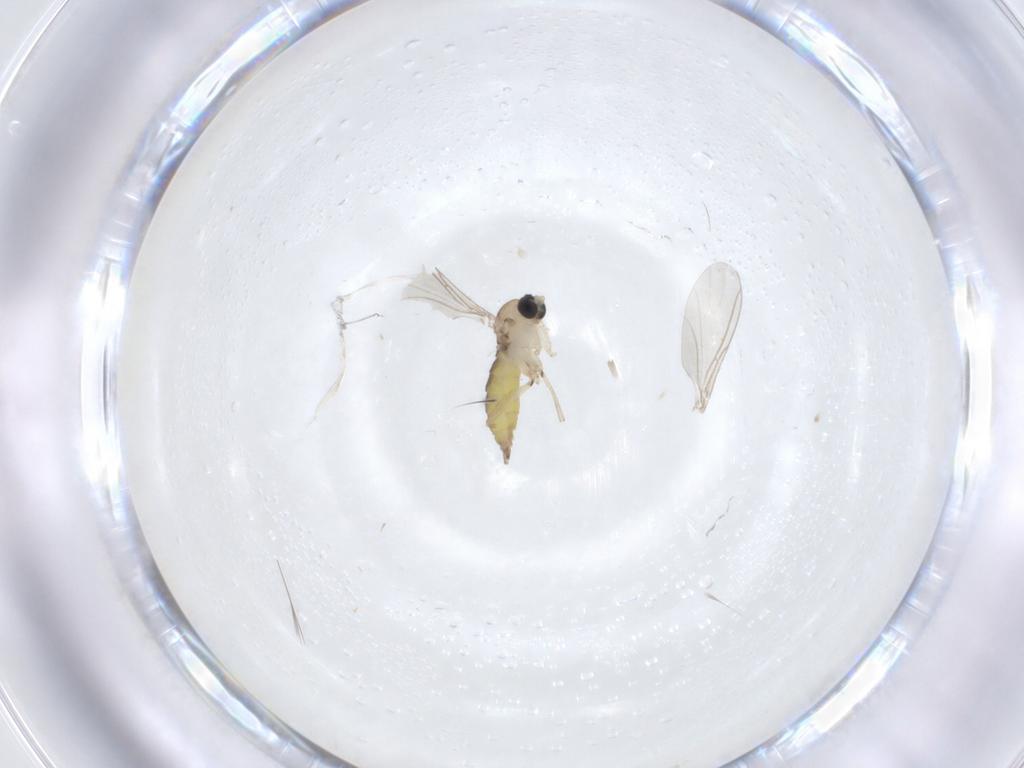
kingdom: Animalia
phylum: Arthropoda
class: Insecta
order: Diptera
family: Sciaridae
